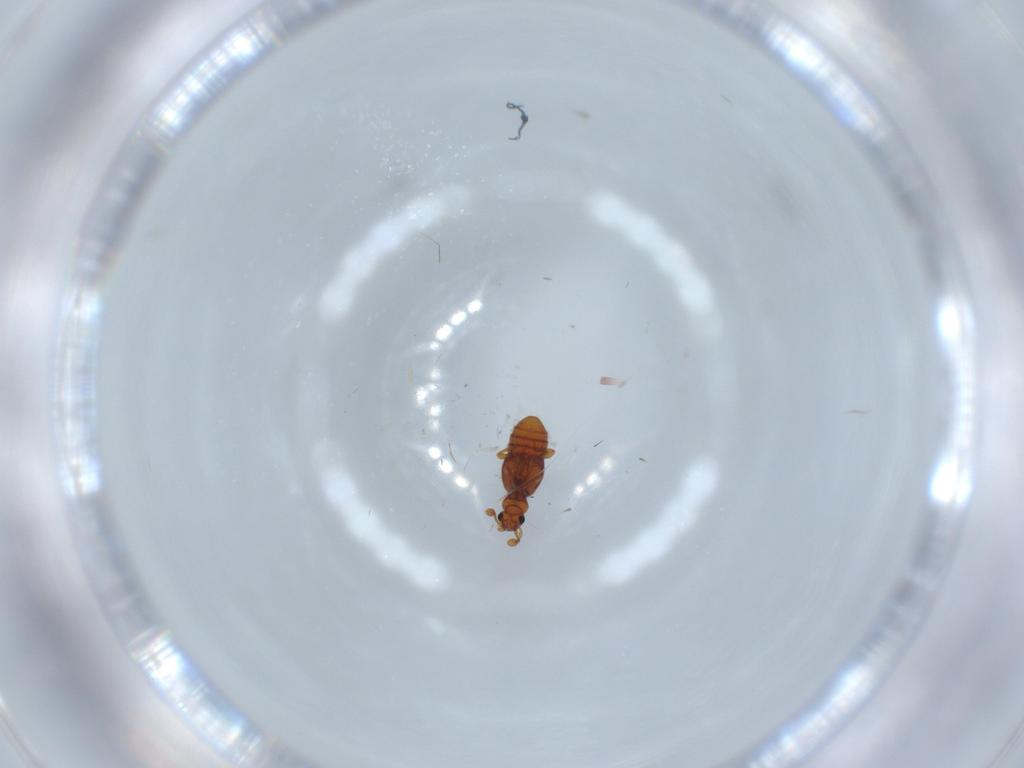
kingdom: Animalia
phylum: Arthropoda
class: Insecta
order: Coleoptera
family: Staphylinidae
